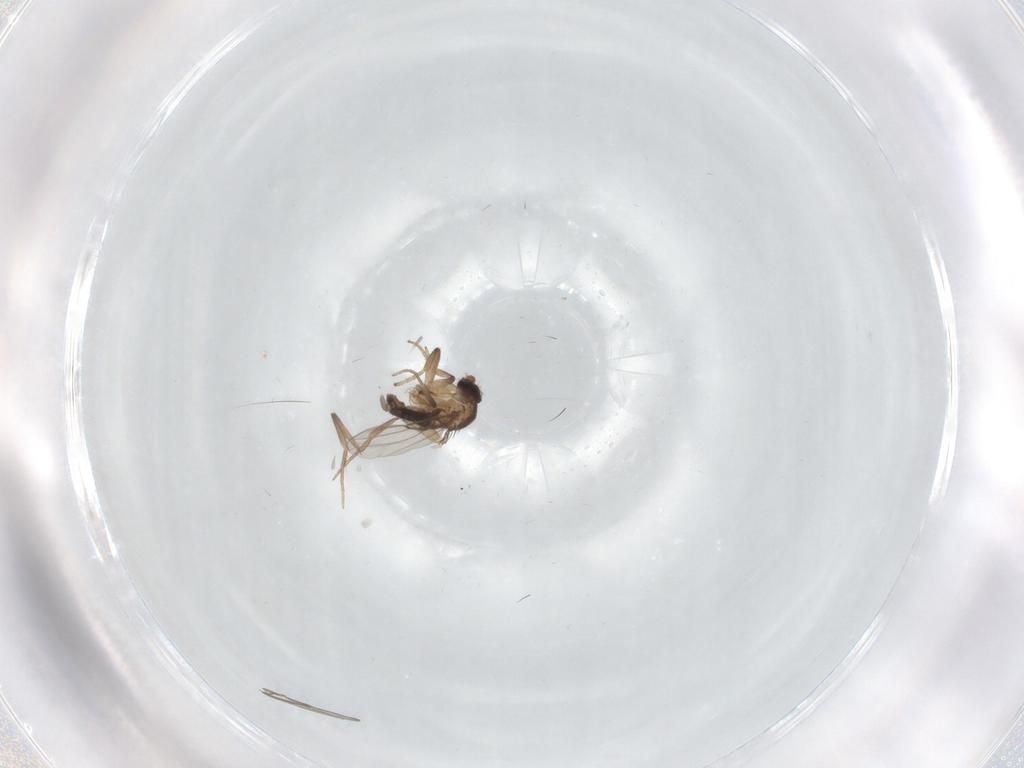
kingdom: Animalia
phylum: Arthropoda
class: Insecta
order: Diptera
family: Phoridae
